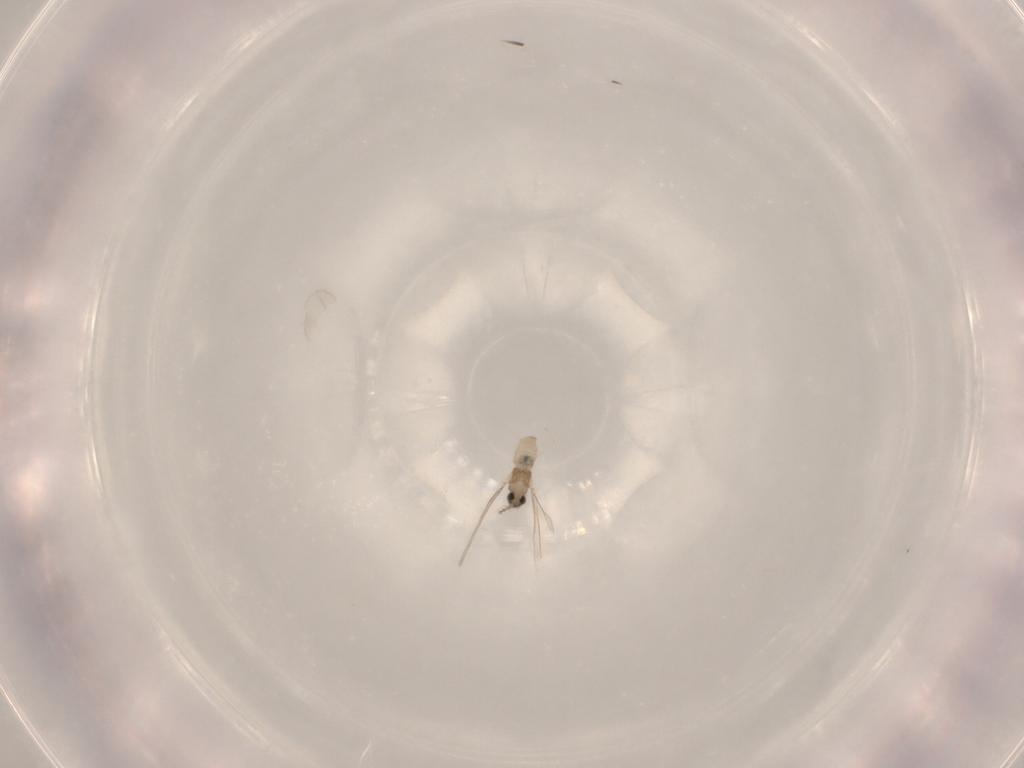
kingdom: Animalia
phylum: Arthropoda
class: Insecta
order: Diptera
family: Cecidomyiidae
